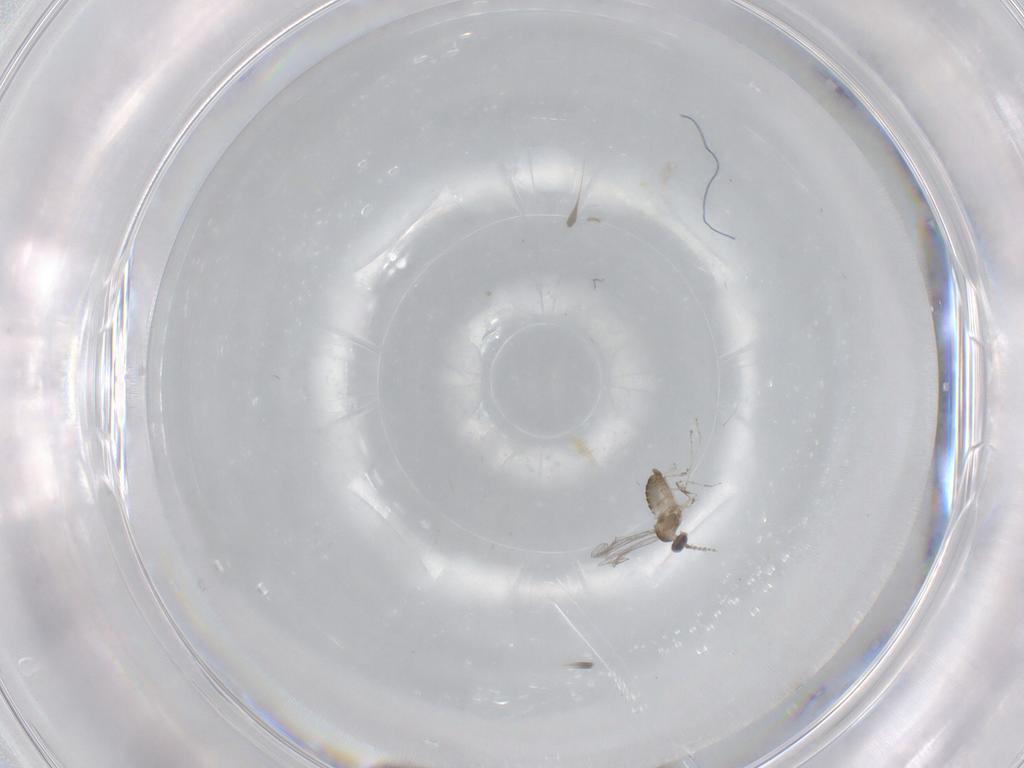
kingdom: Animalia
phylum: Arthropoda
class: Insecta
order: Diptera
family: Cecidomyiidae
